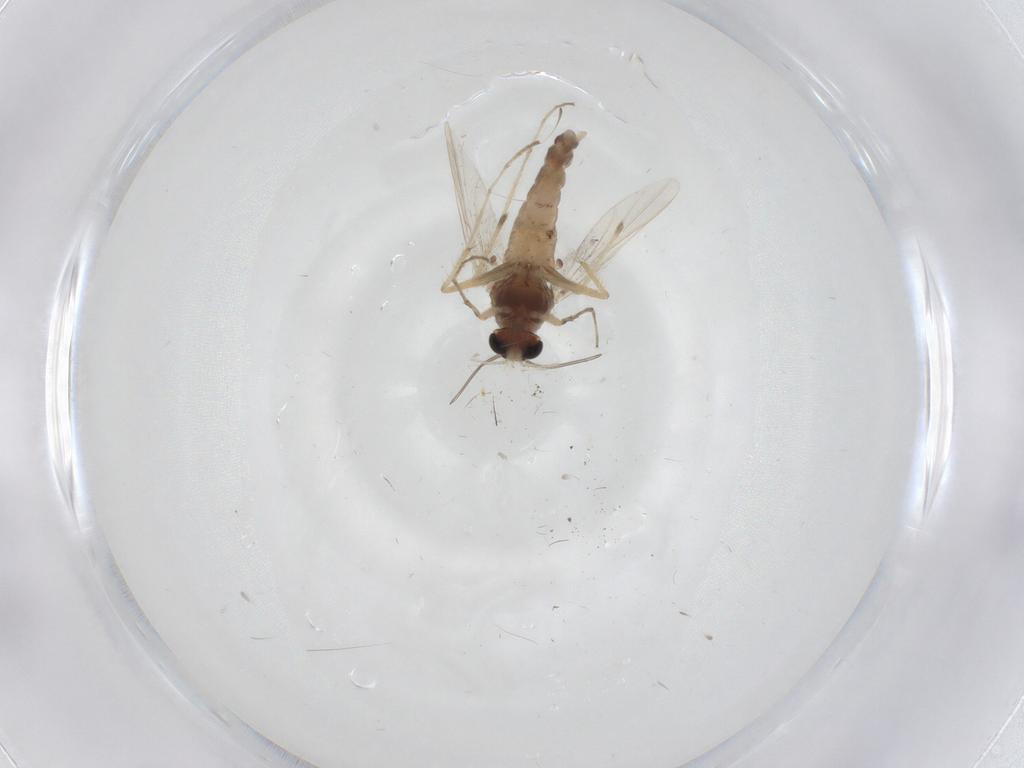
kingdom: Animalia
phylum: Arthropoda
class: Insecta
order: Diptera
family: Chironomidae
